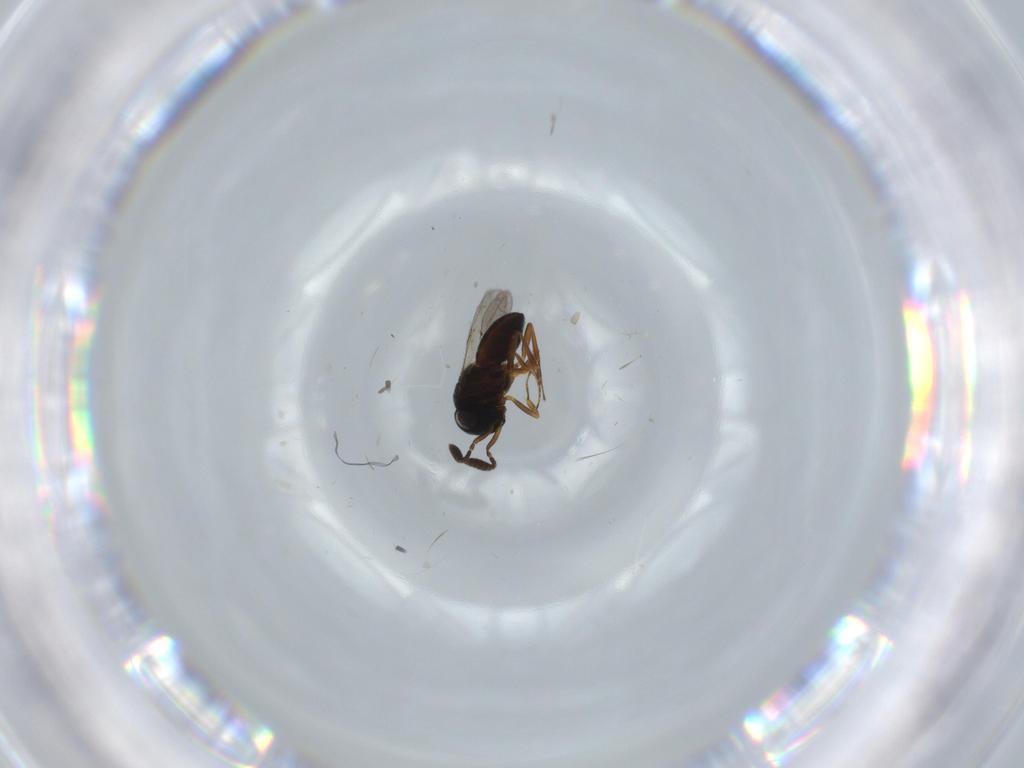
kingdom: Animalia
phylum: Arthropoda
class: Insecta
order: Coleoptera
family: Curculionidae
